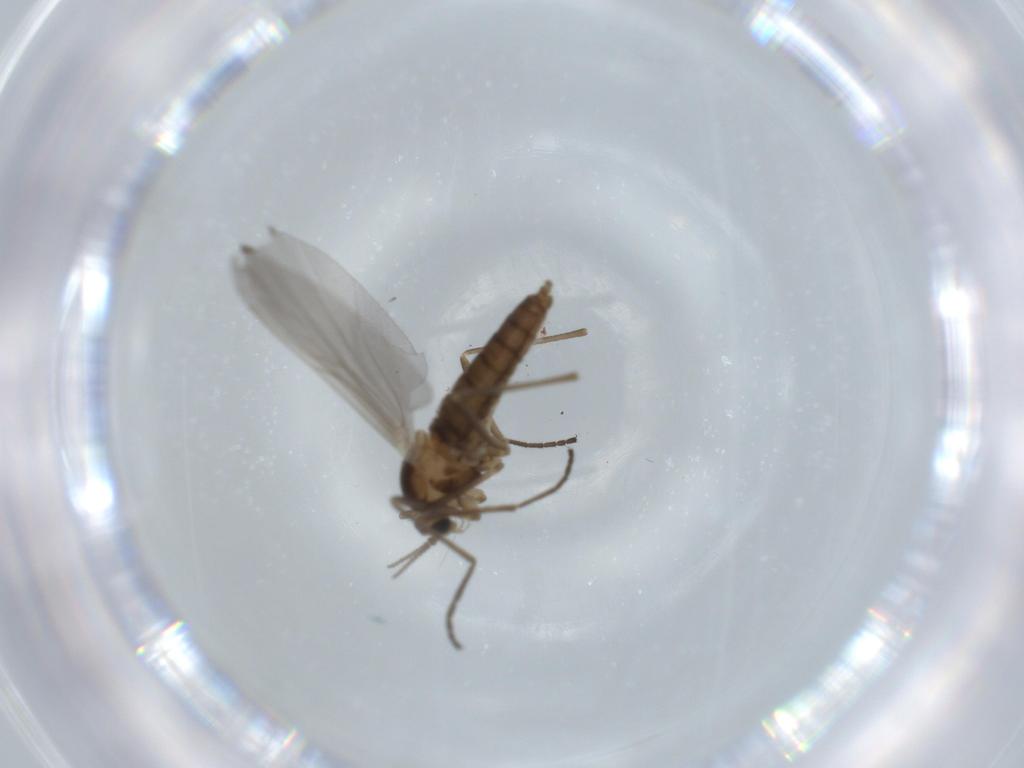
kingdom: Animalia
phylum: Arthropoda
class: Insecta
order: Diptera
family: Cecidomyiidae
